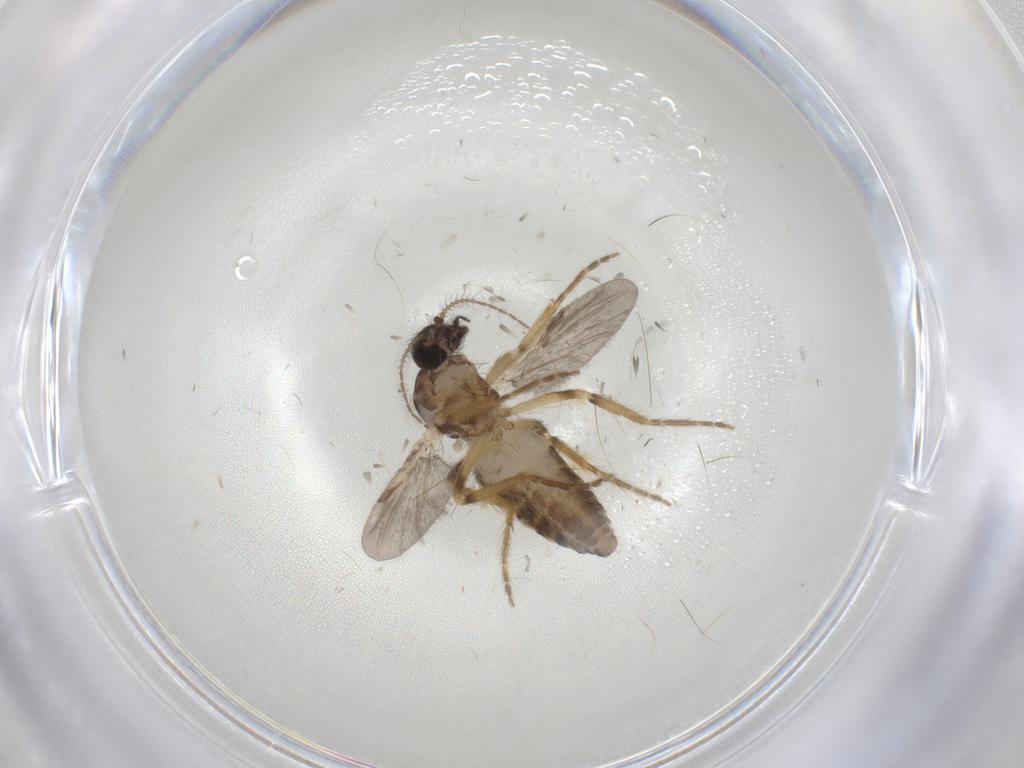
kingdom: Animalia
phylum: Arthropoda
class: Insecta
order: Diptera
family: Ceratopogonidae
